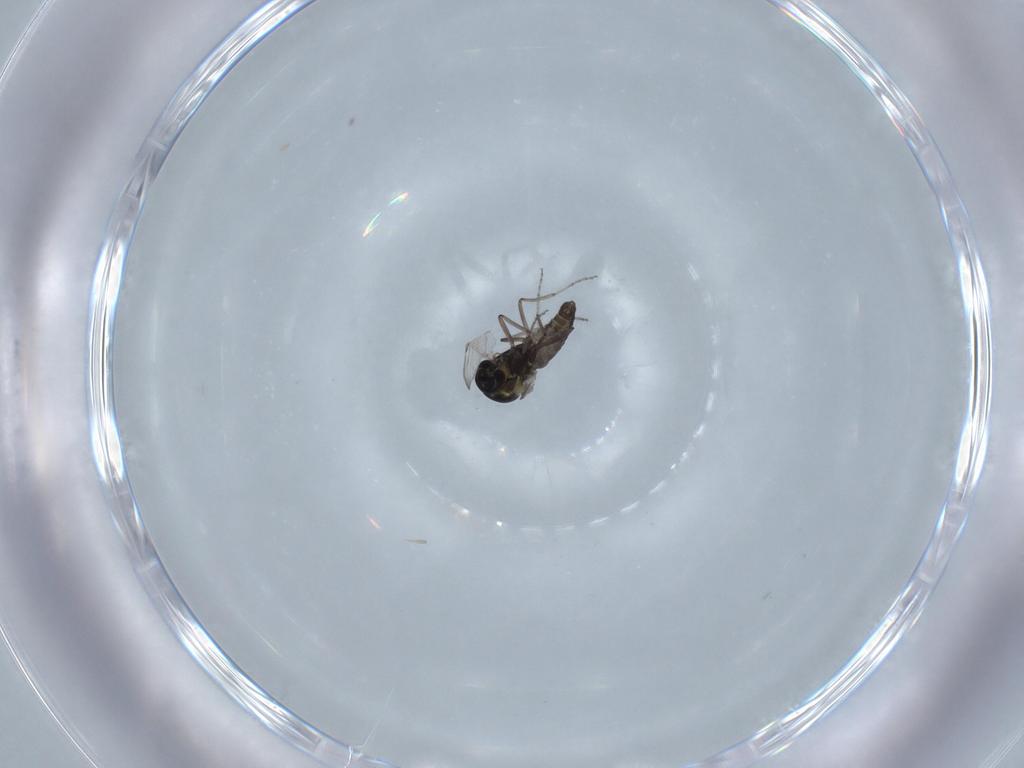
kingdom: Animalia
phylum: Arthropoda
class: Insecta
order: Diptera
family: Ceratopogonidae
